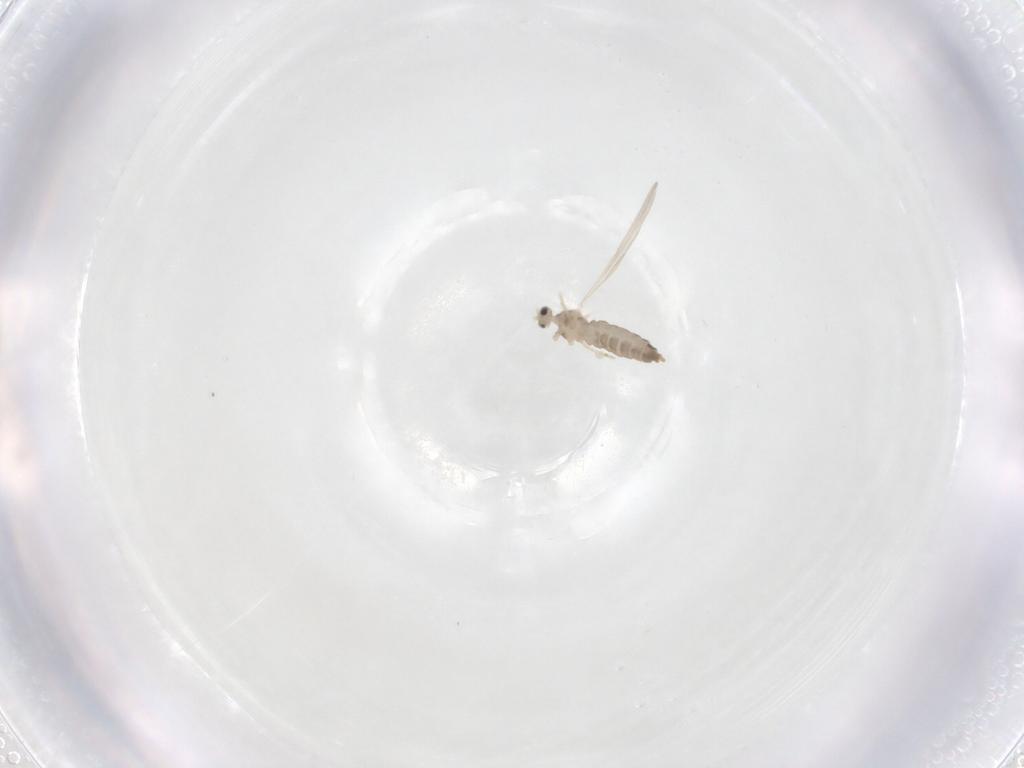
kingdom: Animalia
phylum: Arthropoda
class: Insecta
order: Diptera
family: Cecidomyiidae
